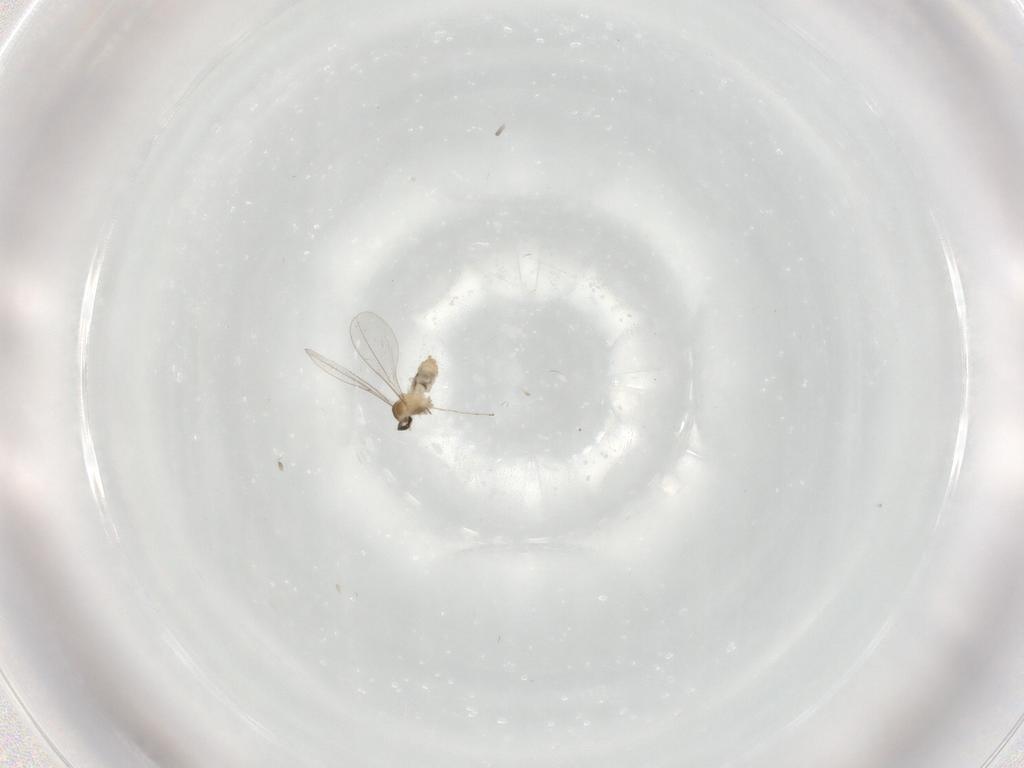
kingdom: Animalia
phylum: Arthropoda
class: Insecta
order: Diptera
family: Cecidomyiidae
